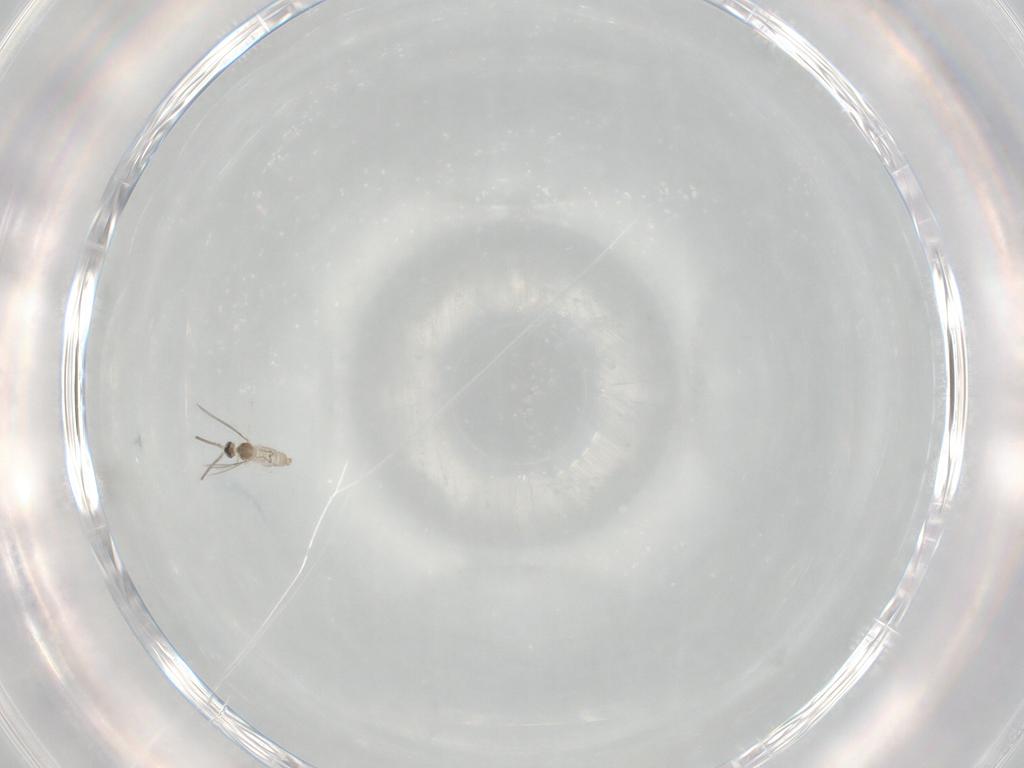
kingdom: Animalia
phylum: Arthropoda
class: Insecta
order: Diptera
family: Cecidomyiidae
